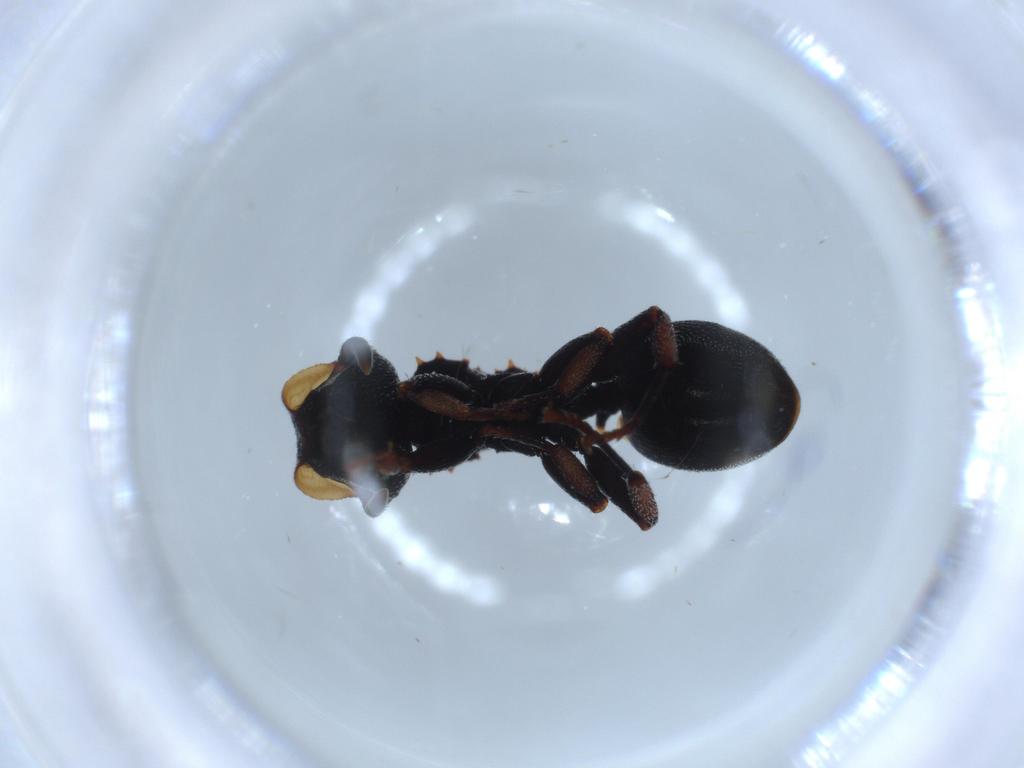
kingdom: Animalia
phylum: Arthropoda
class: Insecta
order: Hymenoptera
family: Formicidae
